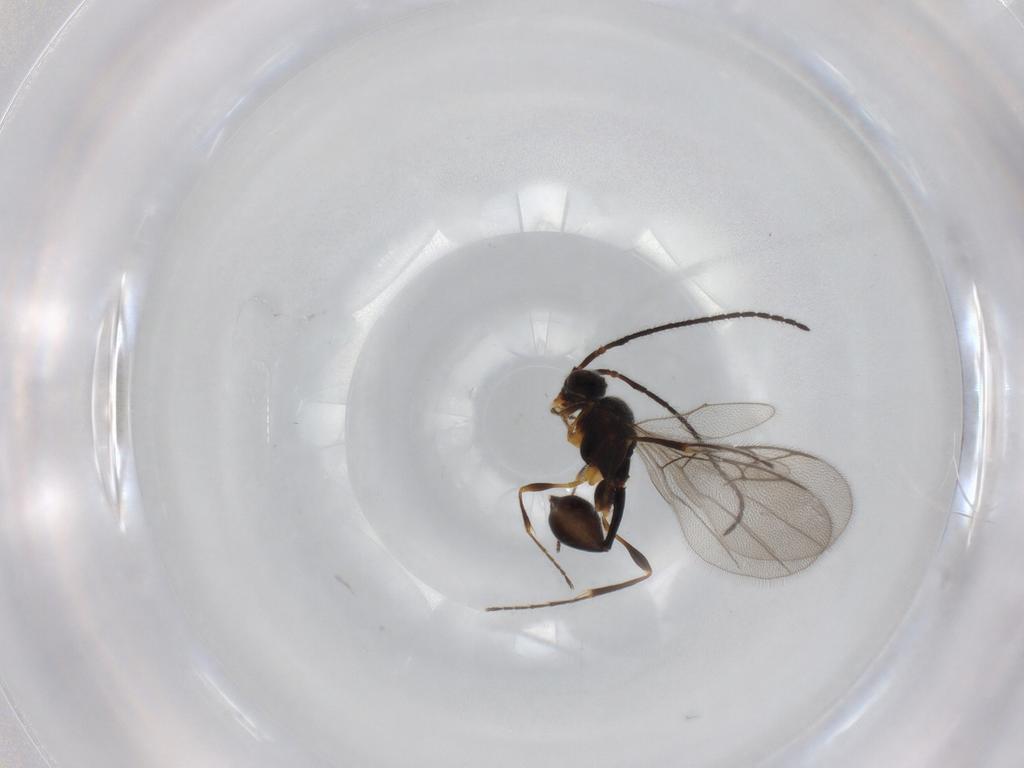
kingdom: Animalia
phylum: Arthropoda
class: Insecta
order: Hymenoptera
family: Diapriidae
